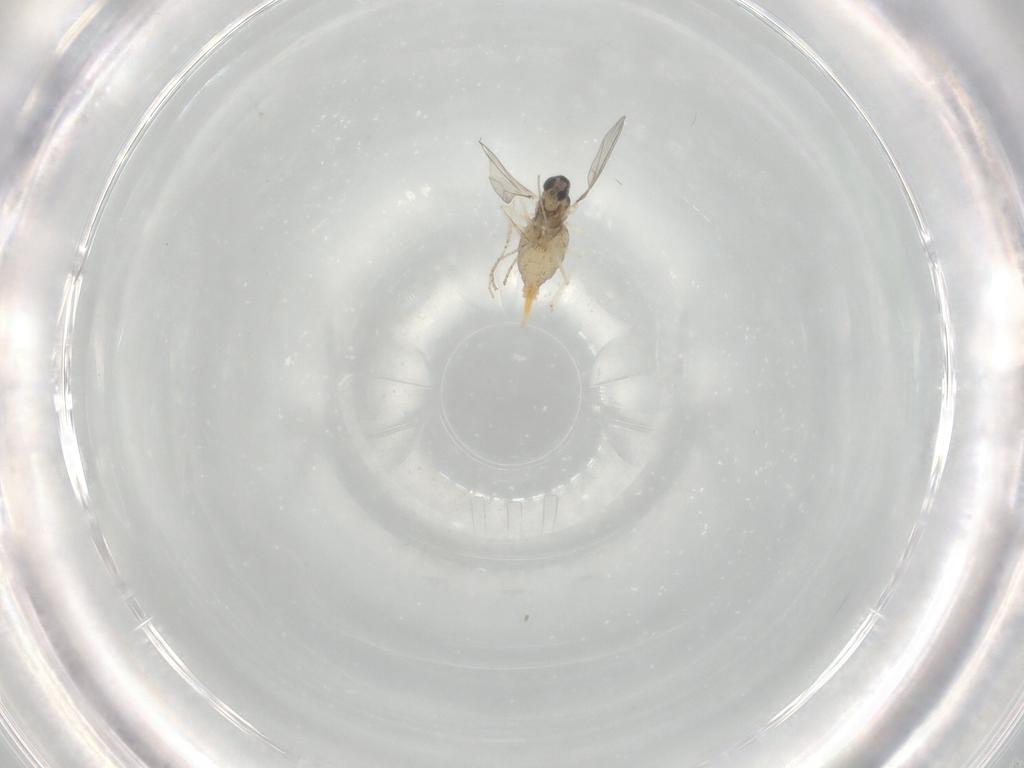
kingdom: Animalia
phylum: Arthropoda
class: Insecta
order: Diptera
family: Cecidomyiidae
